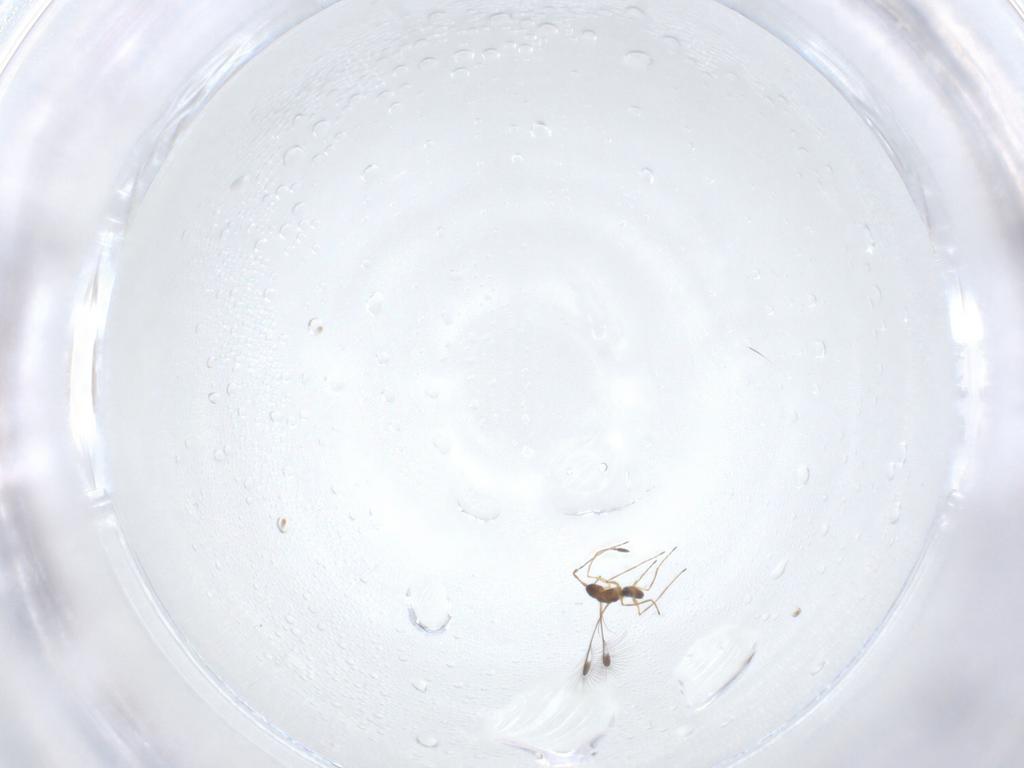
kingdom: Animalia
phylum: Arthropoda
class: Insecta
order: Hymenoptera
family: Mymaridae
